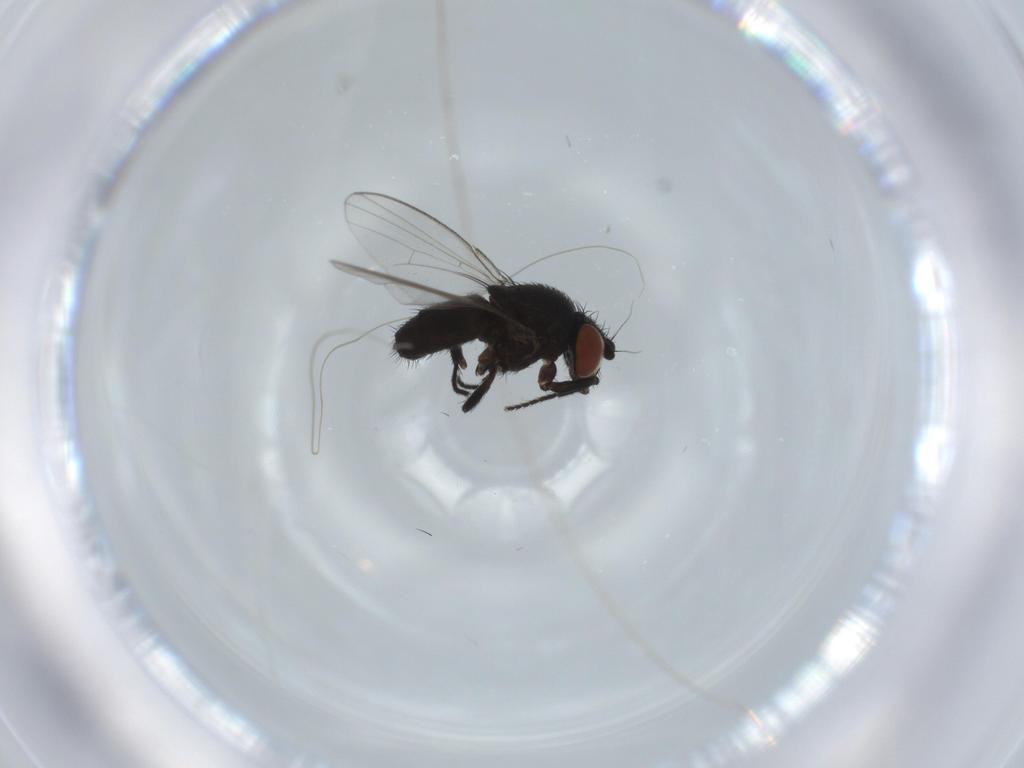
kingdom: Animalia
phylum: Arthropoda
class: Insecta
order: Diptera
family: Milichiidae
